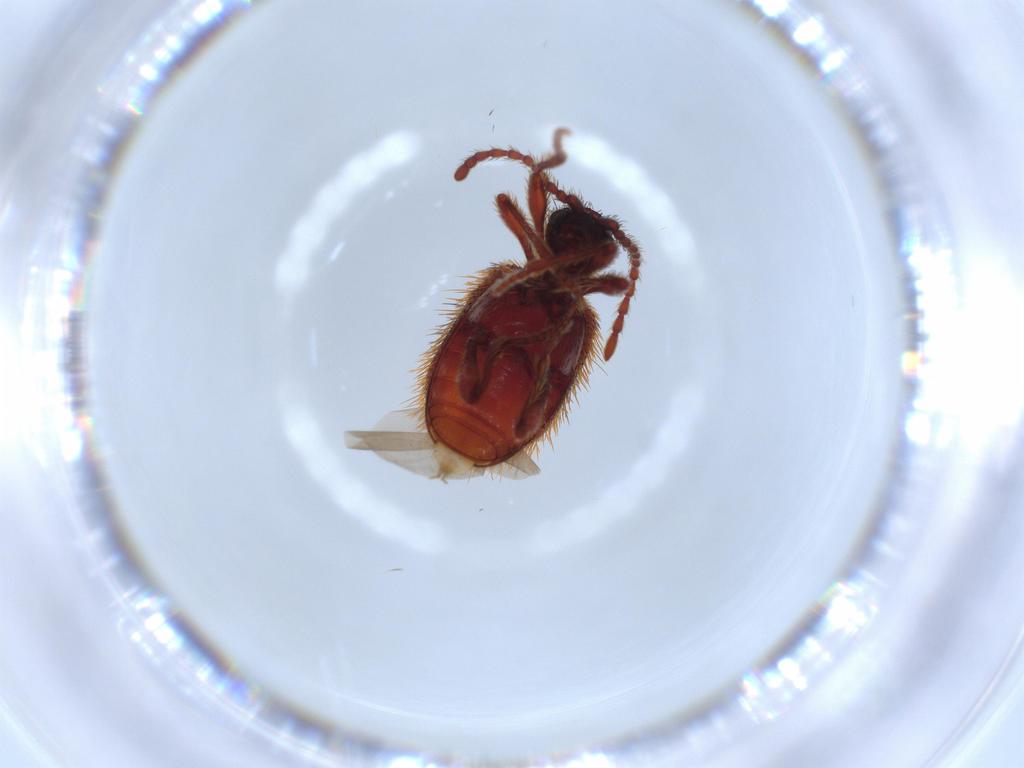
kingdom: Animalia
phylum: Arthropoda
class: Insecta
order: Coleoptera
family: Ptinidae
